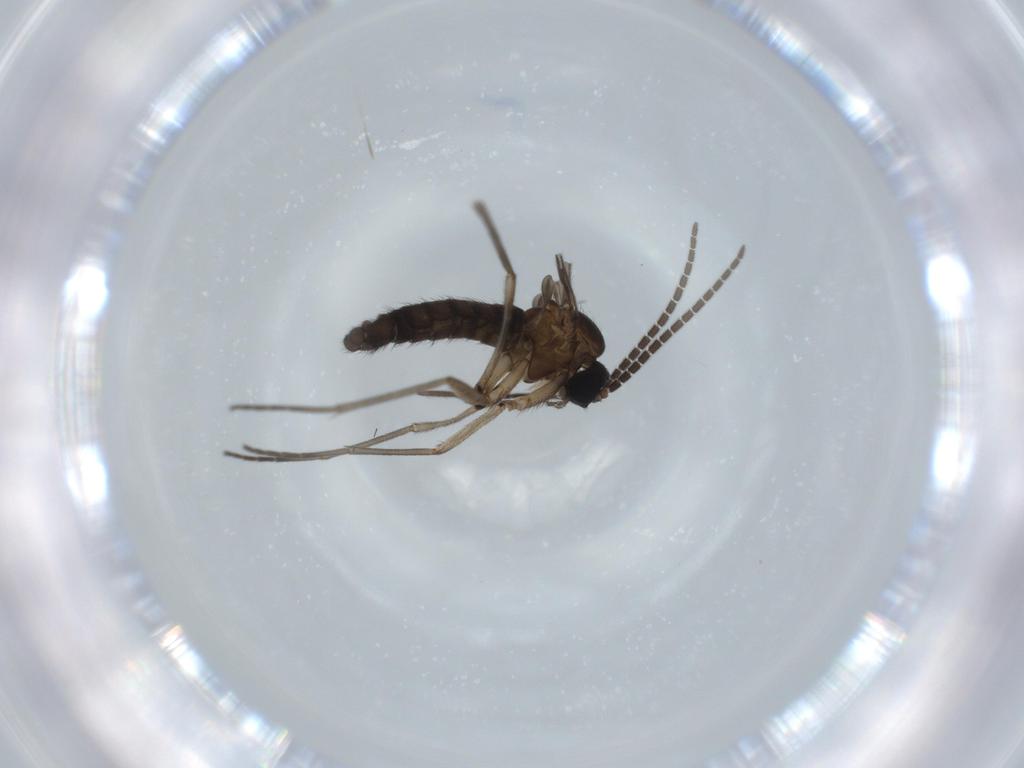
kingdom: Animalia
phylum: Arthropoda
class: Insecta
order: Diptera
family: Sciaridae
